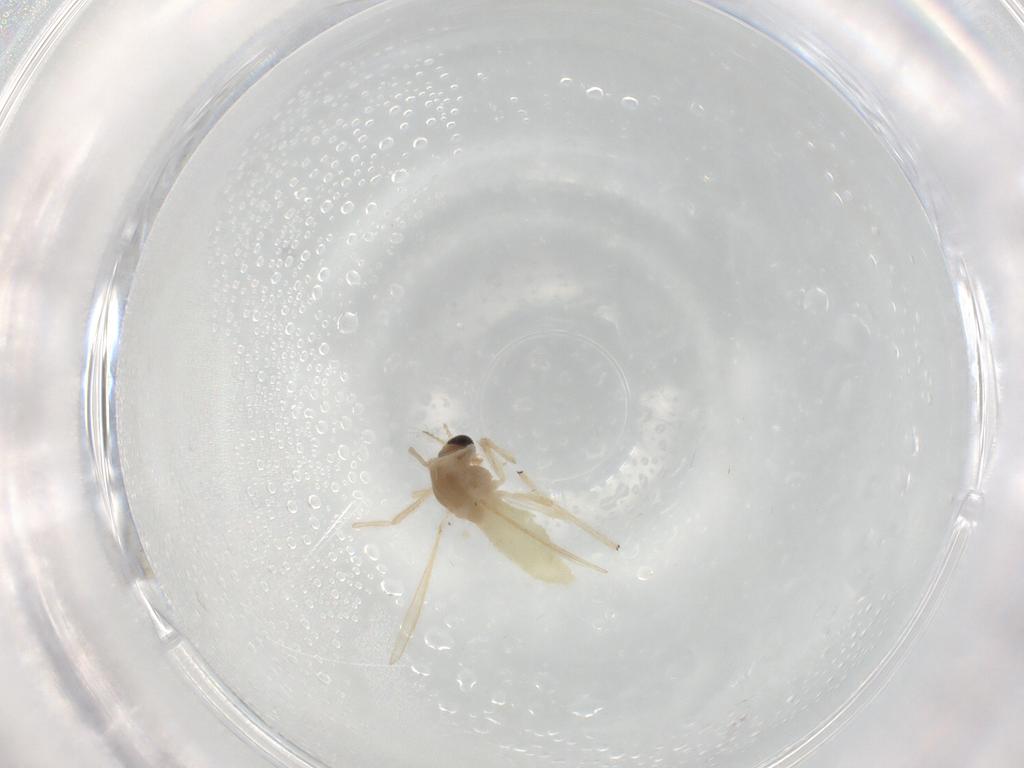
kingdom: Animalia
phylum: Arthropoda
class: Insecta
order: Diptera
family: Chironomidae
